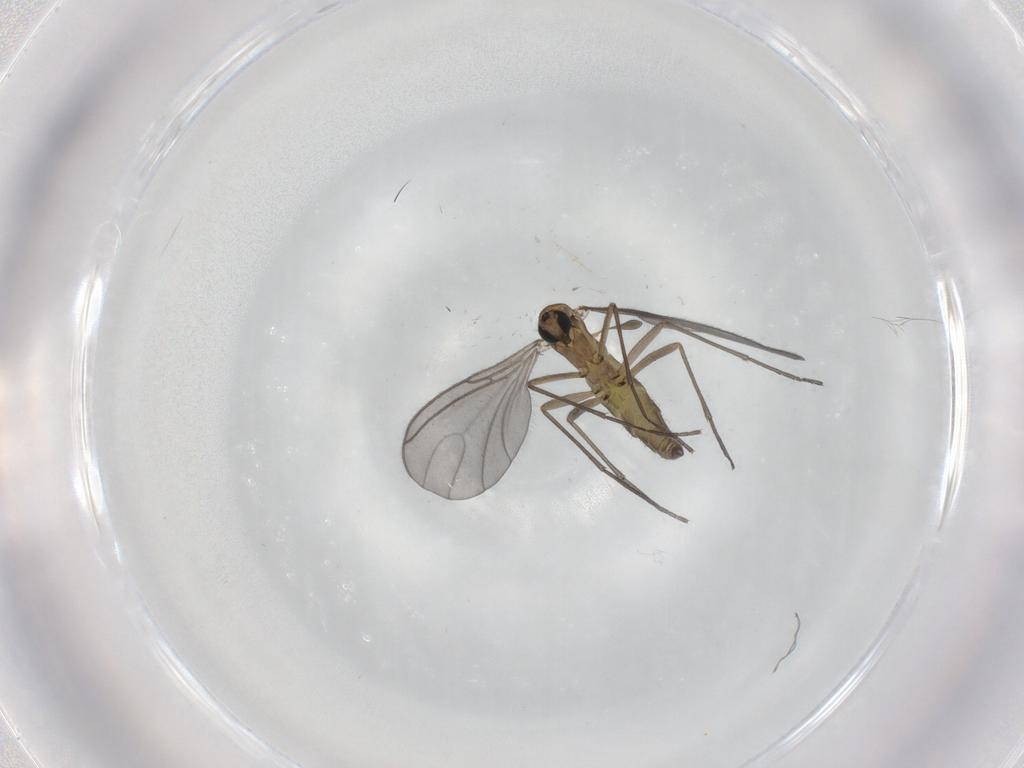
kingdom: Animalia
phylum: Arthropoda
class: Insecta
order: Diptera
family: Sciaridae
